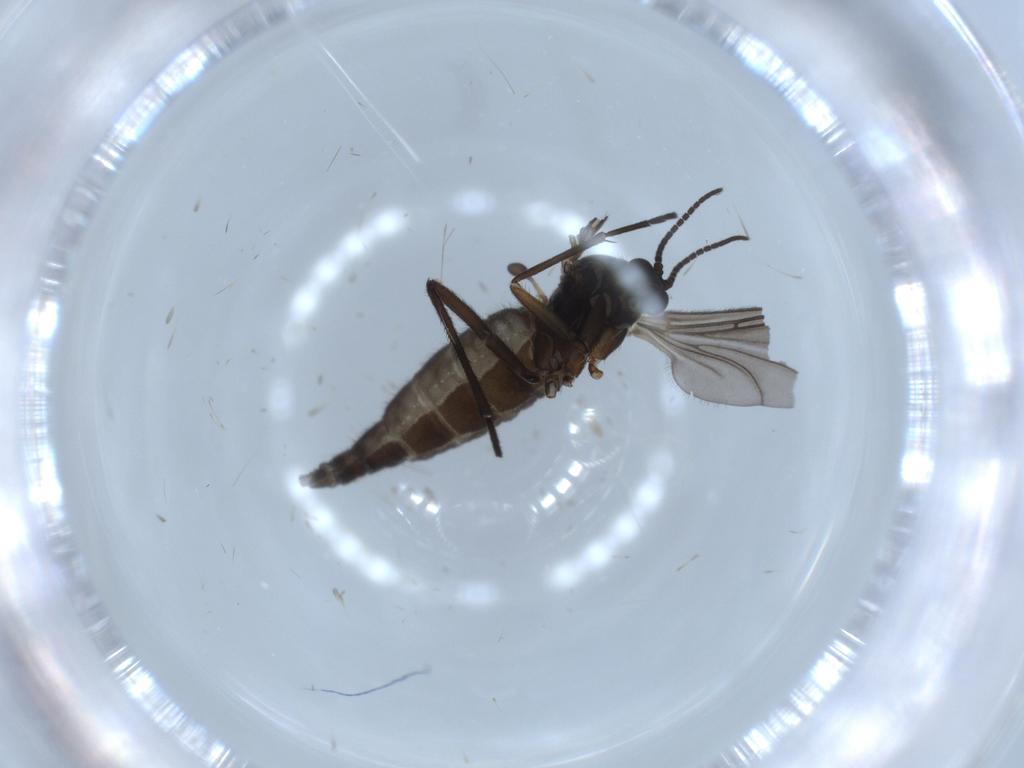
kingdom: Animalia
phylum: Arthropoda
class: Insecta
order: Diptera
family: Sciaridae
